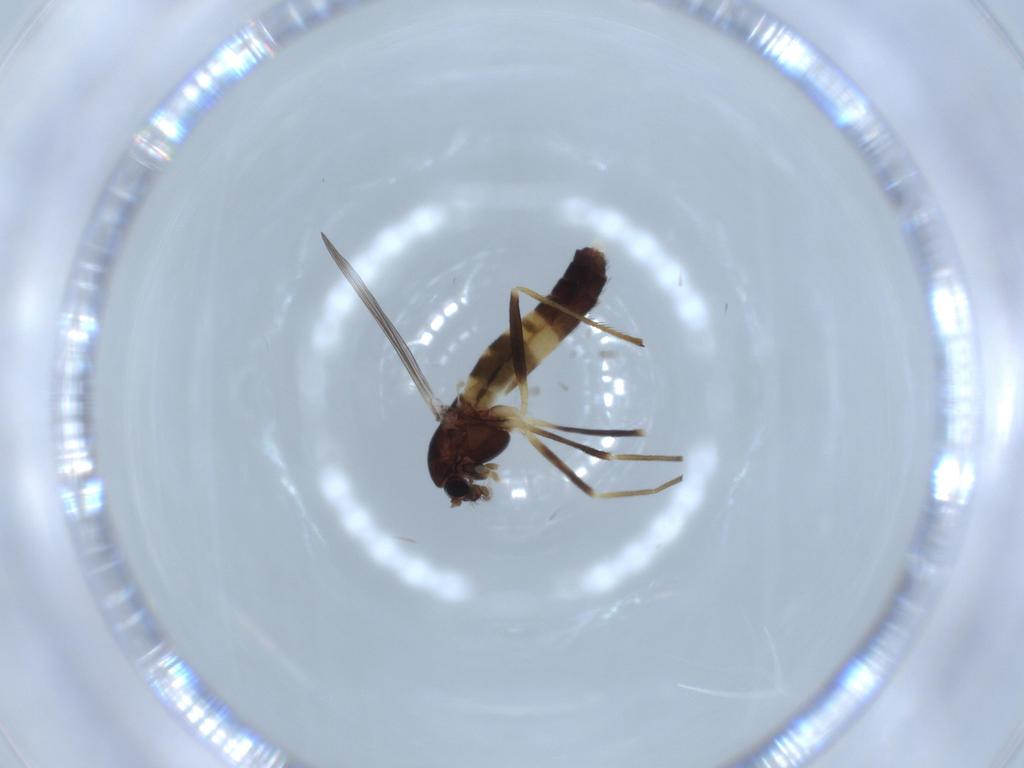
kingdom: Animalia
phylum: Arthropoda
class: Insecta
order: Diptera
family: Chironomidae
